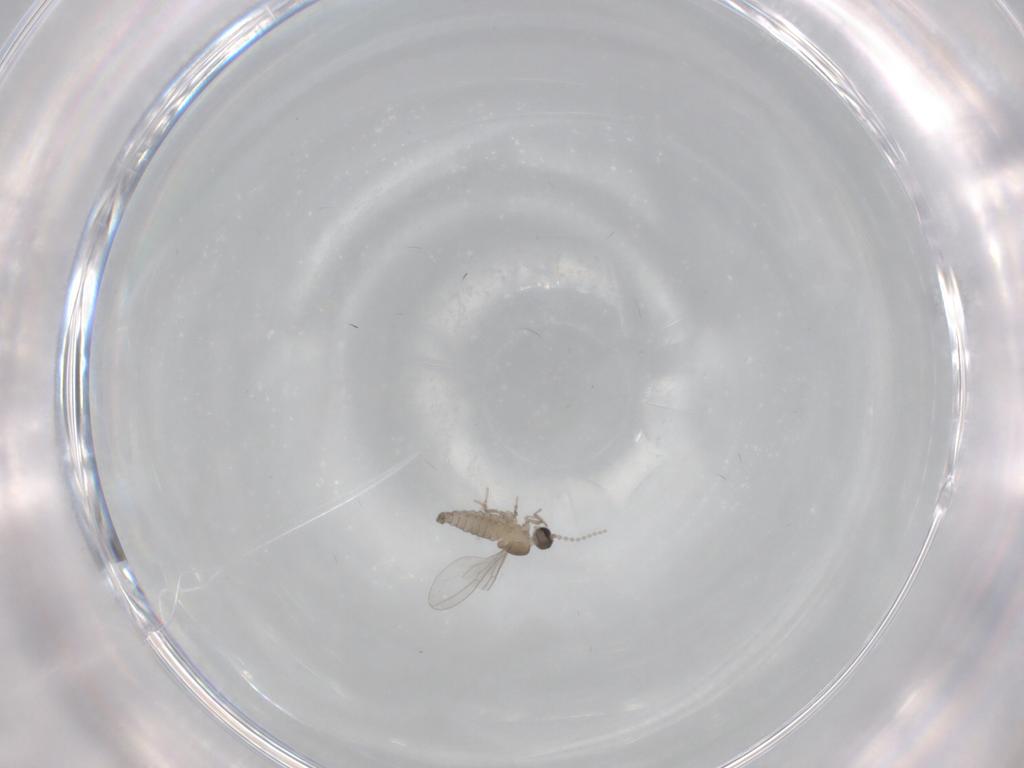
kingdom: Animalia
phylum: Arthropoda
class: Insecta
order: Diptera
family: Cecidomyiidae
